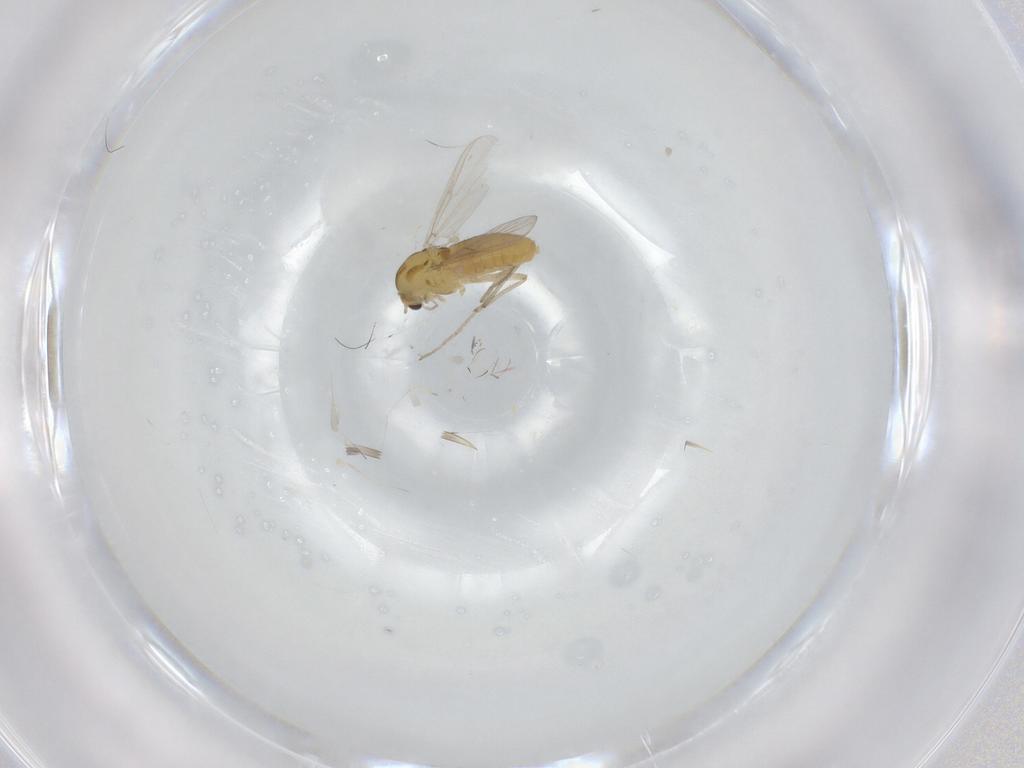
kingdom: Animalia
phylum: Arthropoda
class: Insecta
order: Diptera
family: Chironomidae
